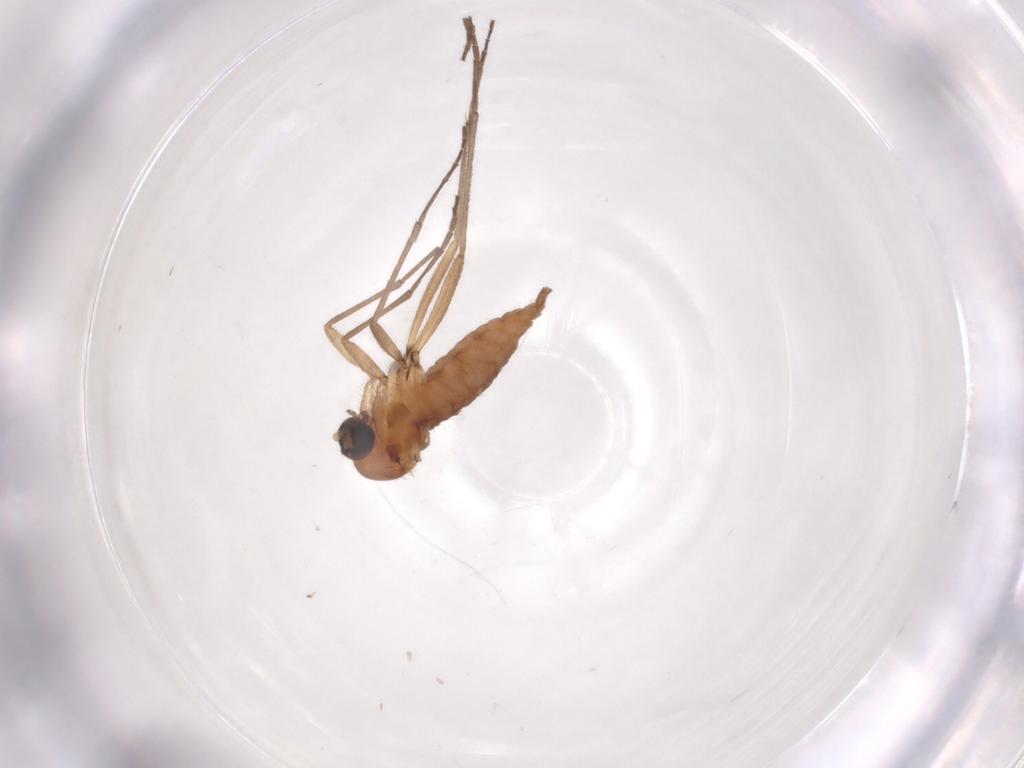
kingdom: Animalia
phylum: Arthropoda
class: Insecta
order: Diptera
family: Sciaridae
